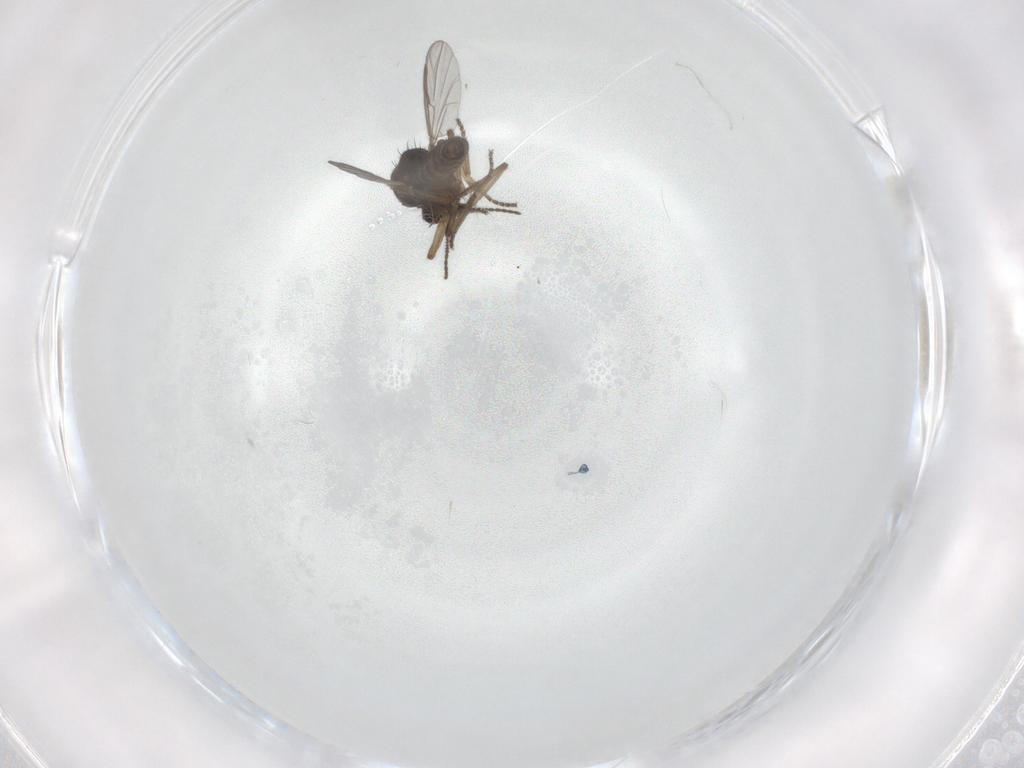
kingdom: Animalia
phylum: Arthropoda
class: Insecta
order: Diptera
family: Ceratopogonidae
